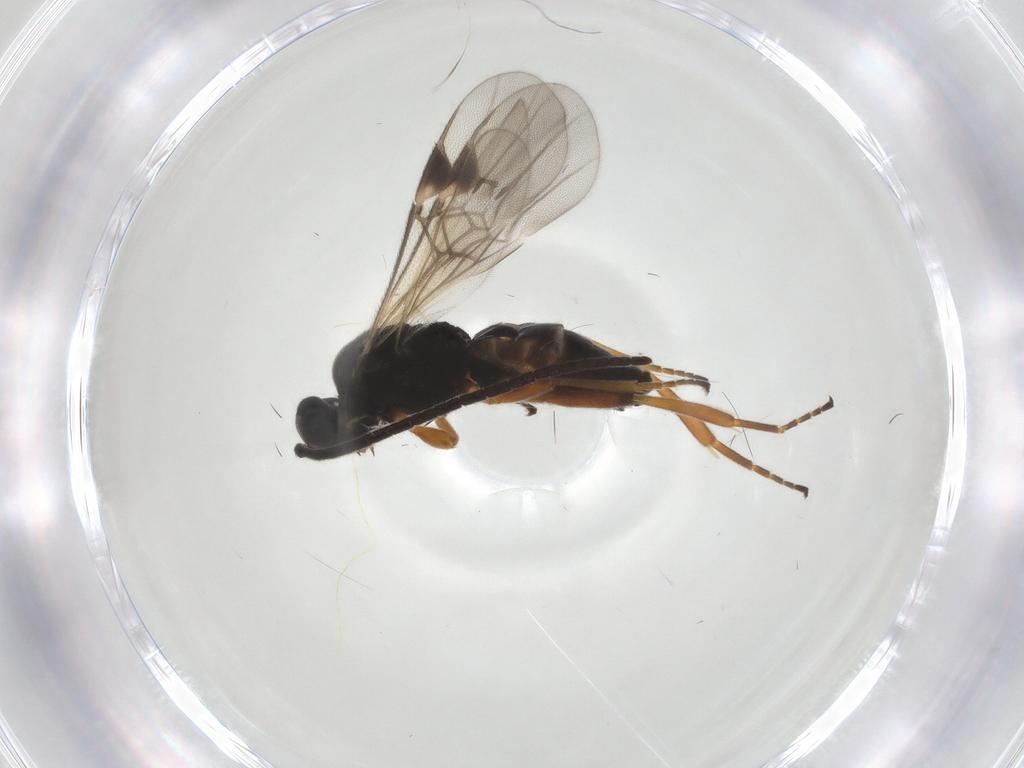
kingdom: Animalia
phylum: Arthropoda
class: Insecta
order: Hymenoptera
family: Braconidae
